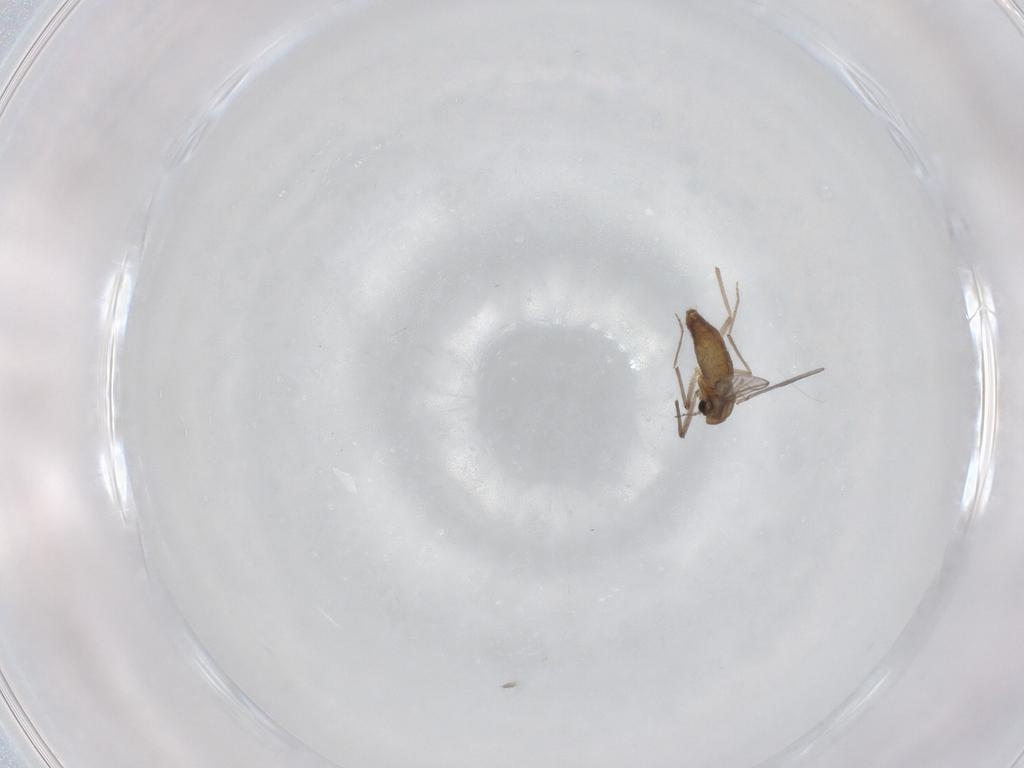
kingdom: Animalia
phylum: Arthropoda
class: Insecta
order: Diptera
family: Chironomidae
